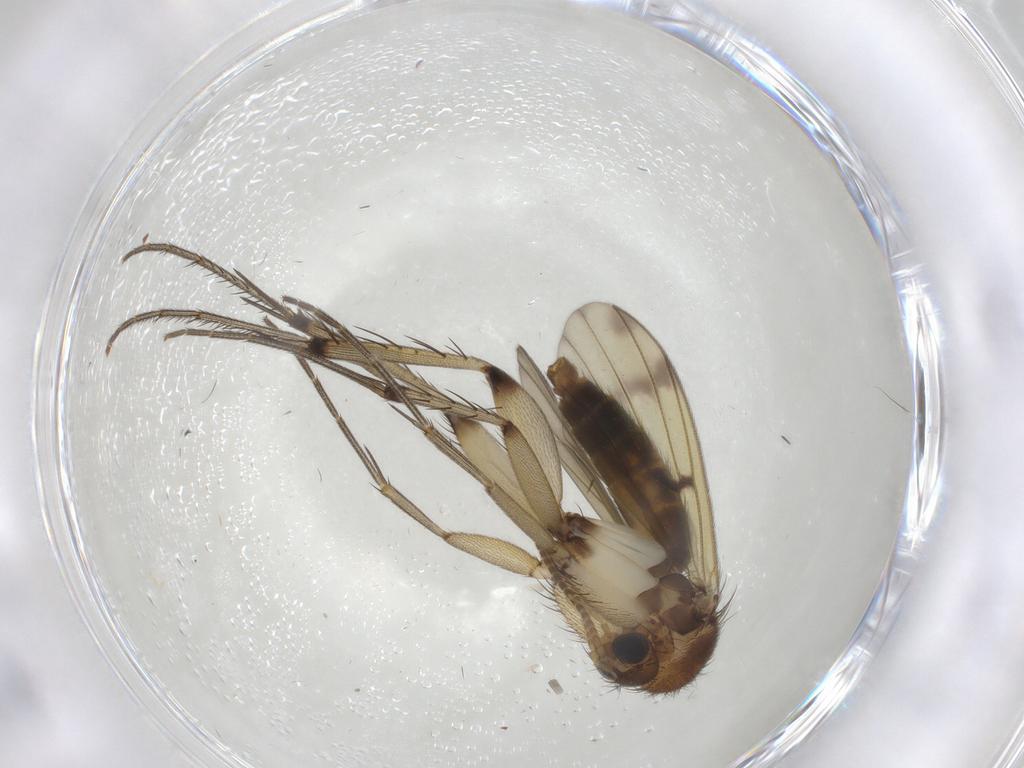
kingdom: Animalia
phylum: Arthropoda
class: Insecta
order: Diptera
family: Mycetophilidae
